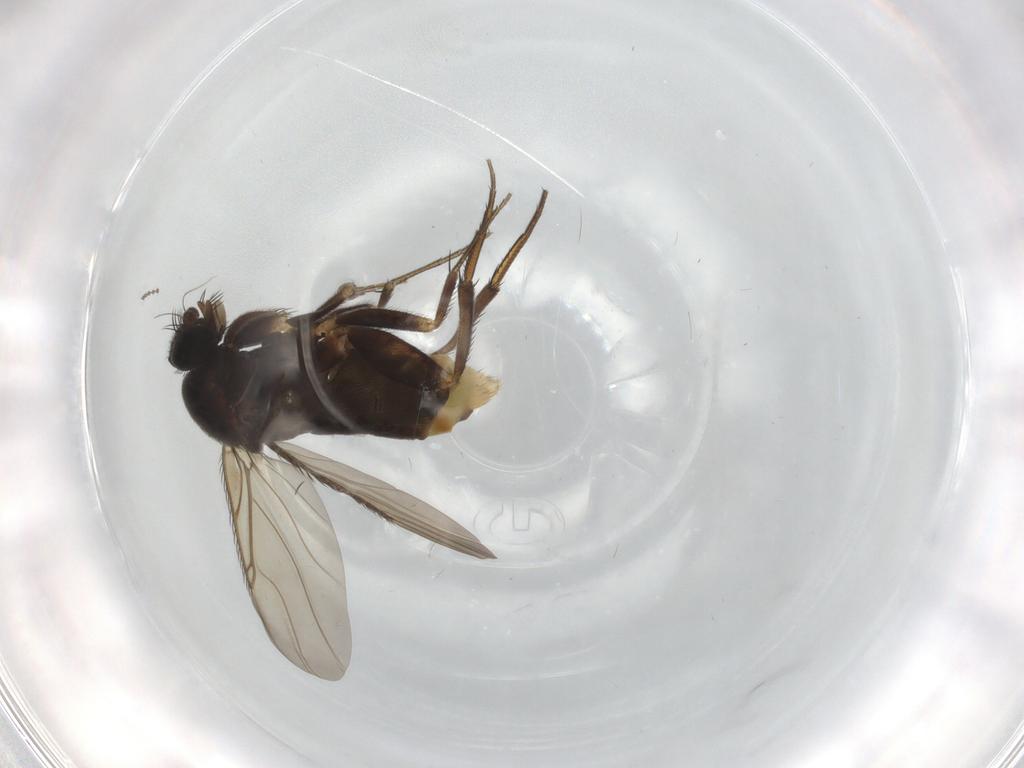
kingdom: Animalia
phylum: Arthropoda
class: Insecta
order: Diptera
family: Phoridae
